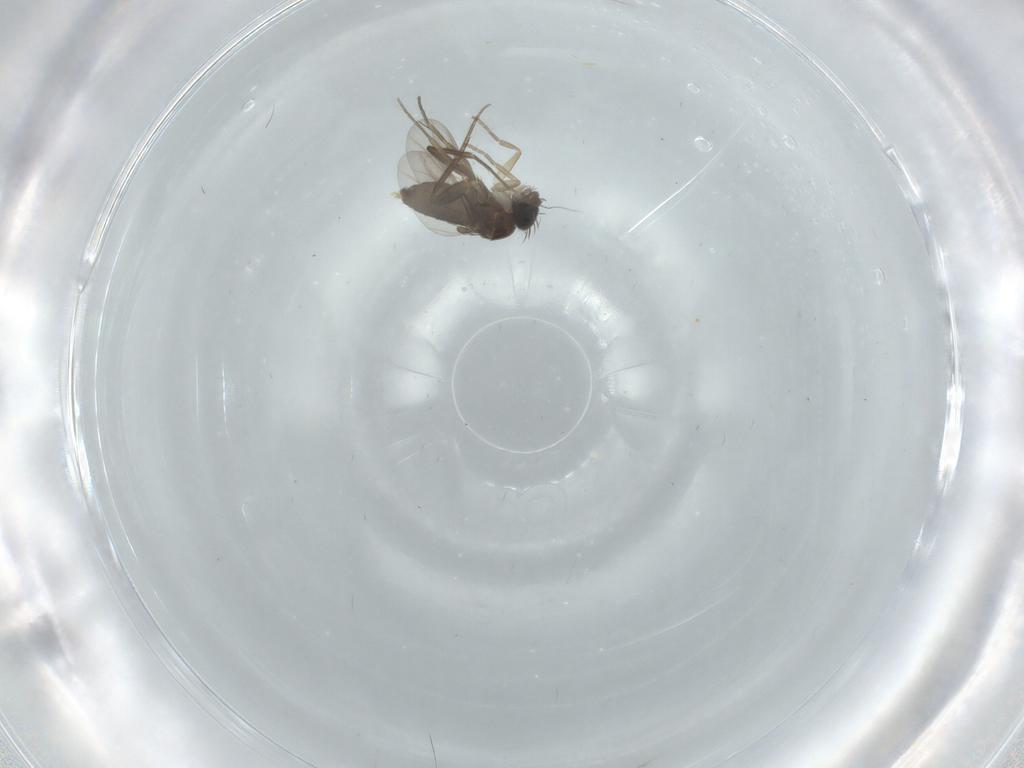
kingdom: Animalia
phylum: Arthropoda
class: Insecta
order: Diptera
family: Phoridae
